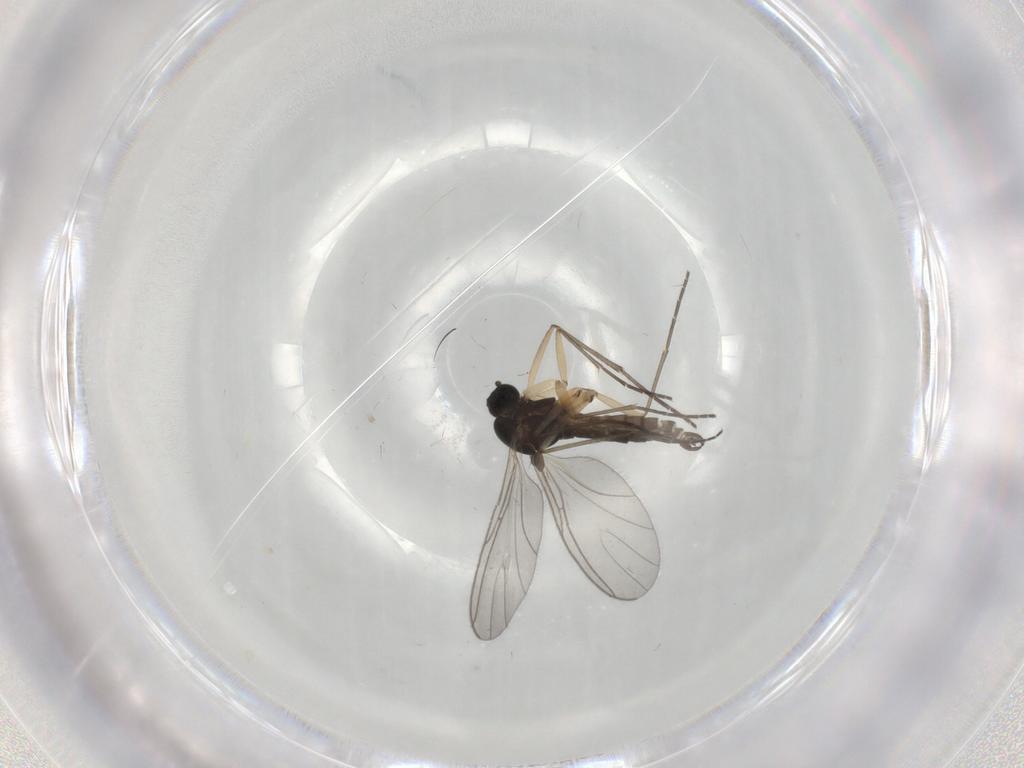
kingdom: Animalia
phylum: Arthropoda
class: Insecta
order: Diptera
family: Sciaridae
